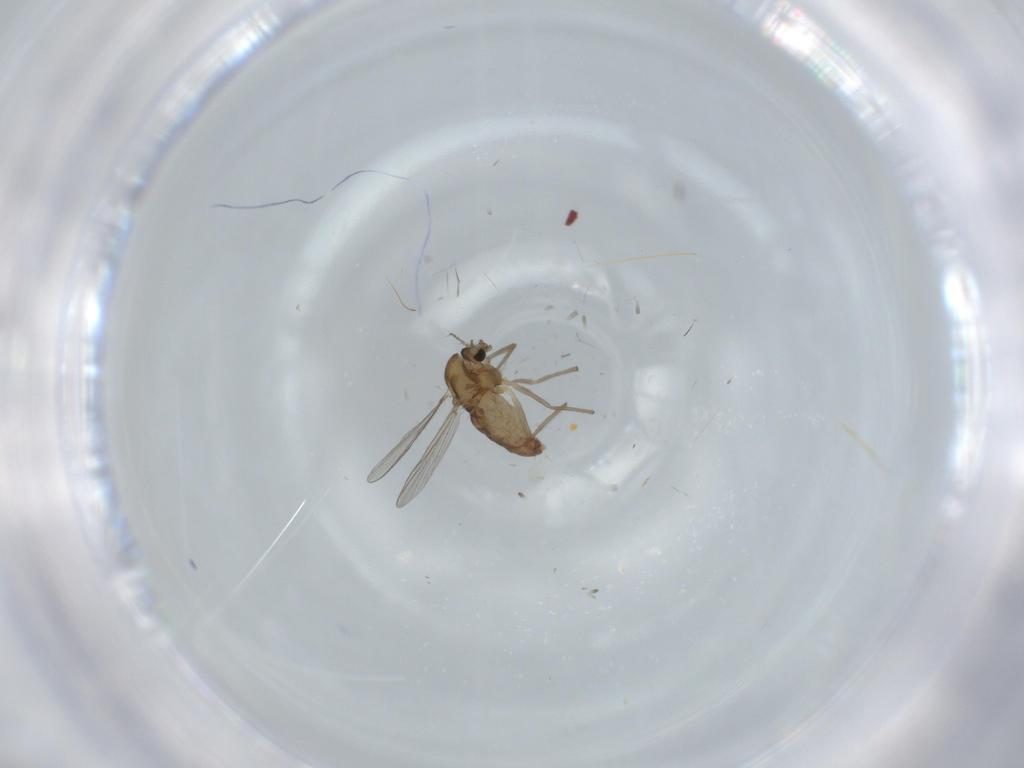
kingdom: Animalia
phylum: Arthropoda
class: Insecta
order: Diptera
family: Chironomidae
